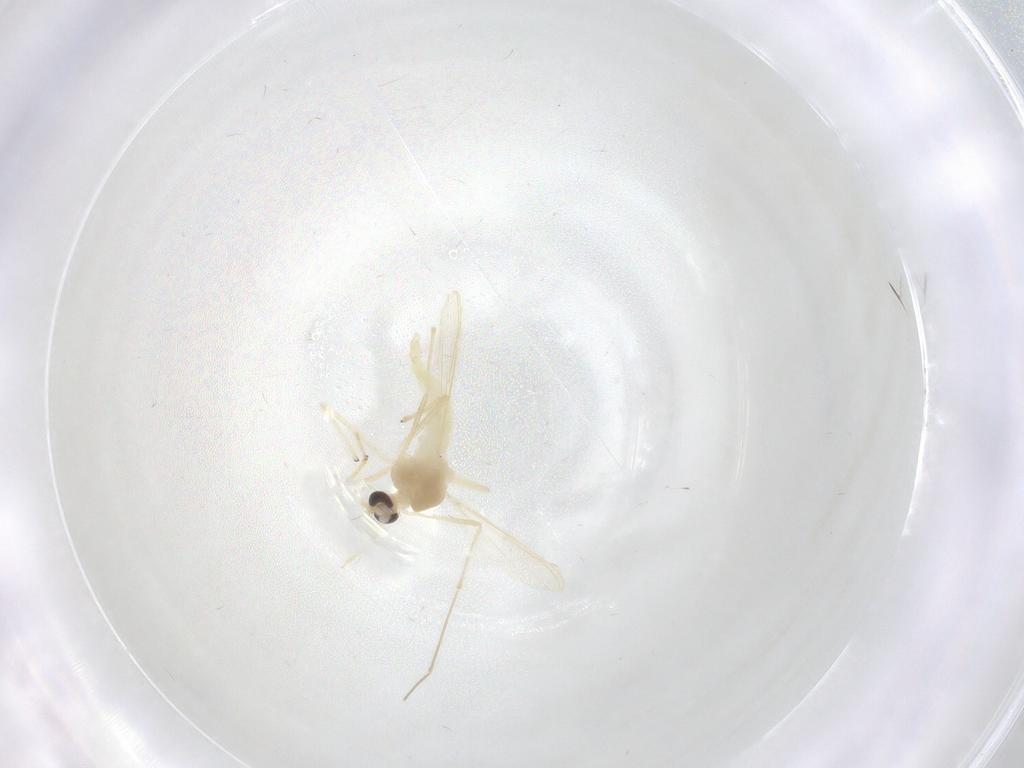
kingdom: Animalia
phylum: Arthropoda
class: Insecta
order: Diptera
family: Chironomidae
